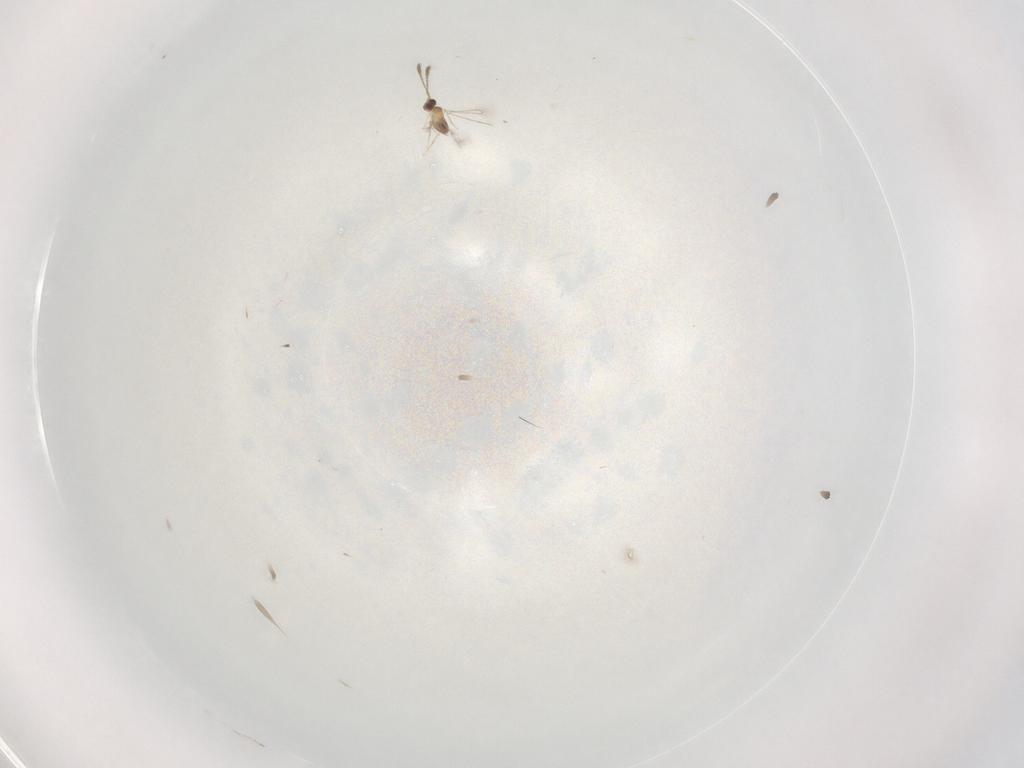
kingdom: Animalia
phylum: Arthropoda
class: Insecta
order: Hymenoptera
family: Mymaridae
